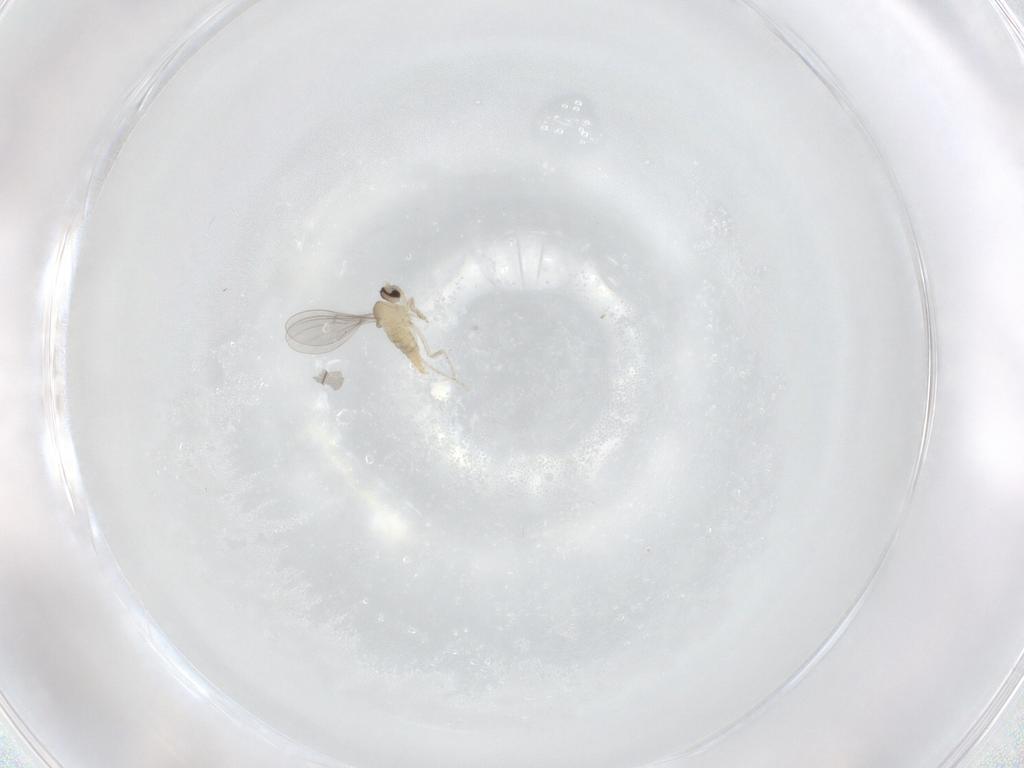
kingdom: Animalia
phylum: Arthropoda
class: Insecta
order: Diptera
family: Cecidomyiidae
